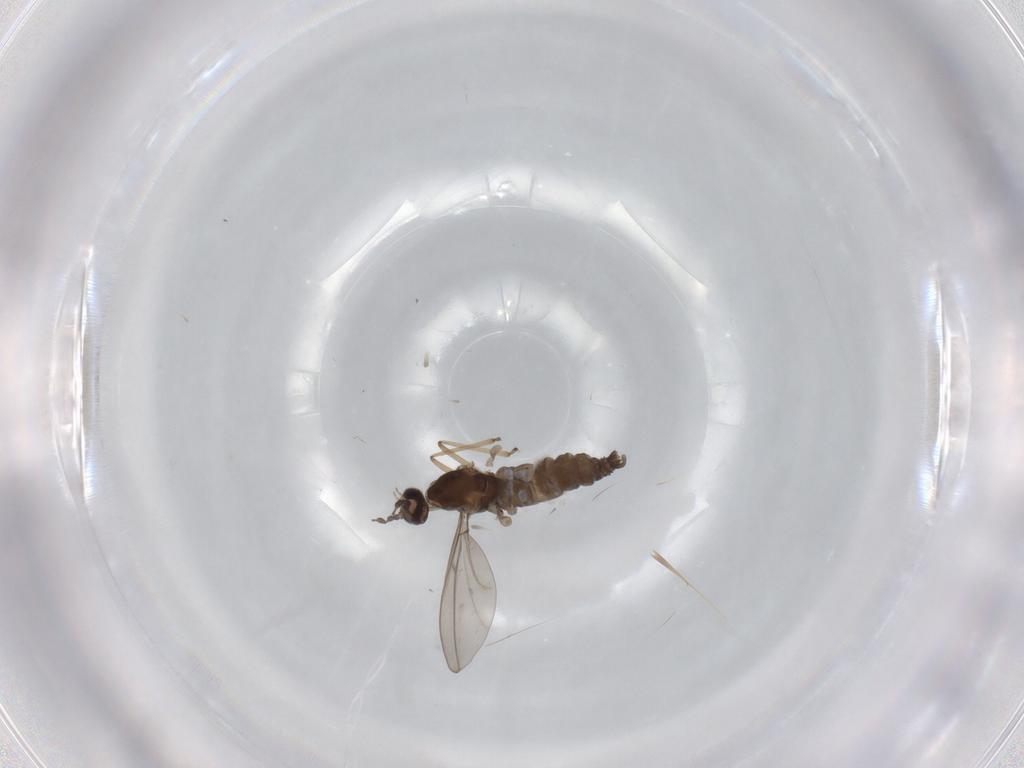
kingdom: Animalia
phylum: Arthropoda
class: Insecta
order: Diptera
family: Cecidomyiidae
